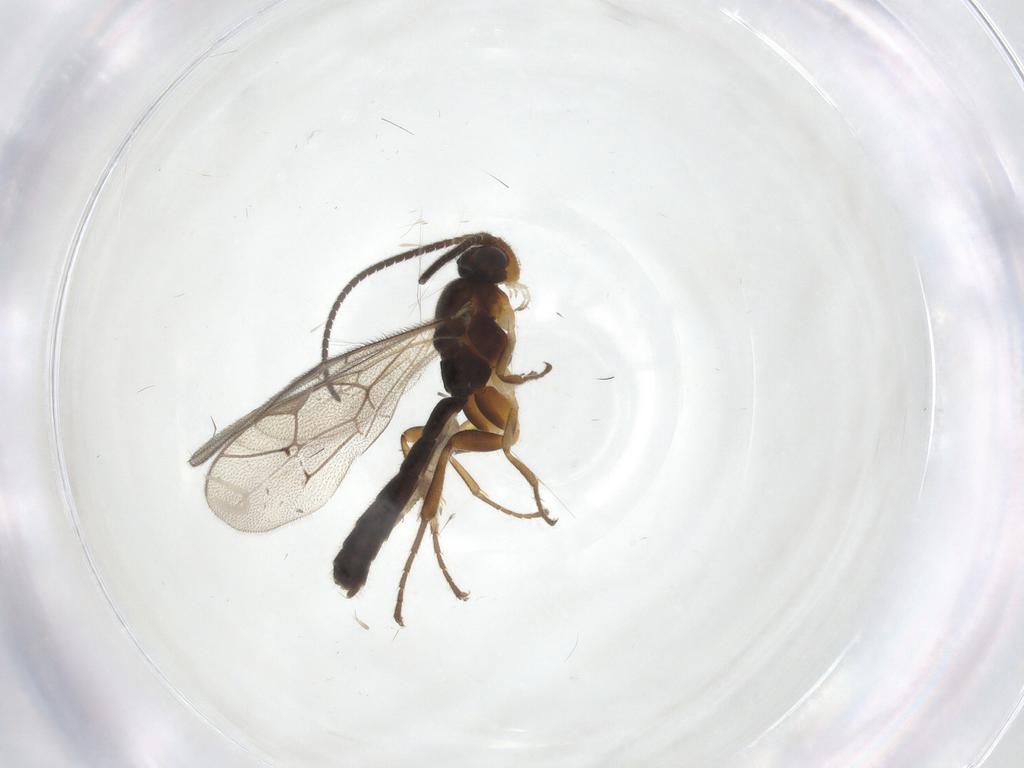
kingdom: Animalia
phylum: Arthropoda
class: Insecta
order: Hymenoptera
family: Ichneumonidae
